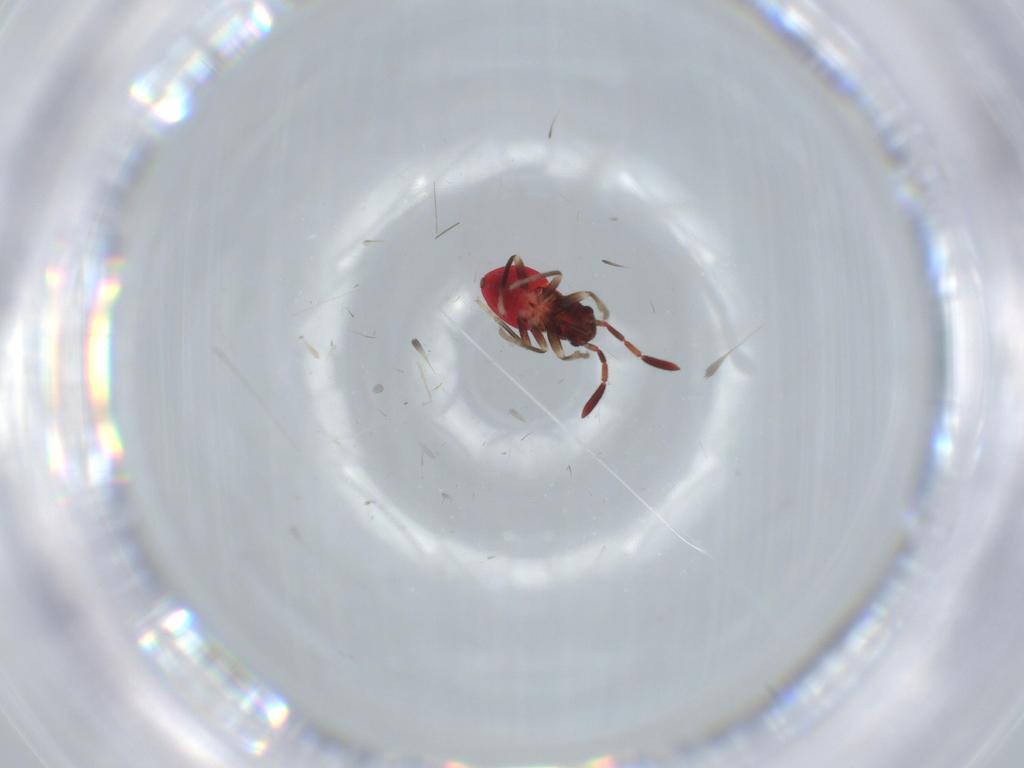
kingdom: Animalia
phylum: Arthropoda
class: Insecta
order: Hemiptera
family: Rhyparochromidae
